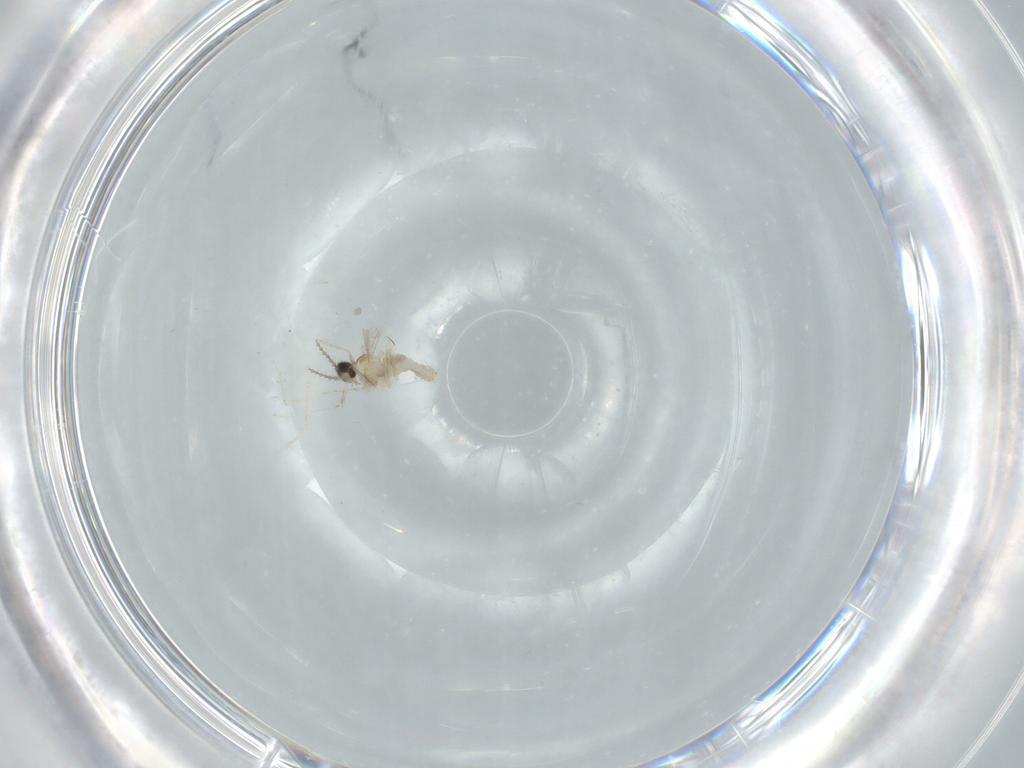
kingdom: Animalia
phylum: Arthropoda
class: Insecta
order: Diptera
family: Cecidomyiidae
